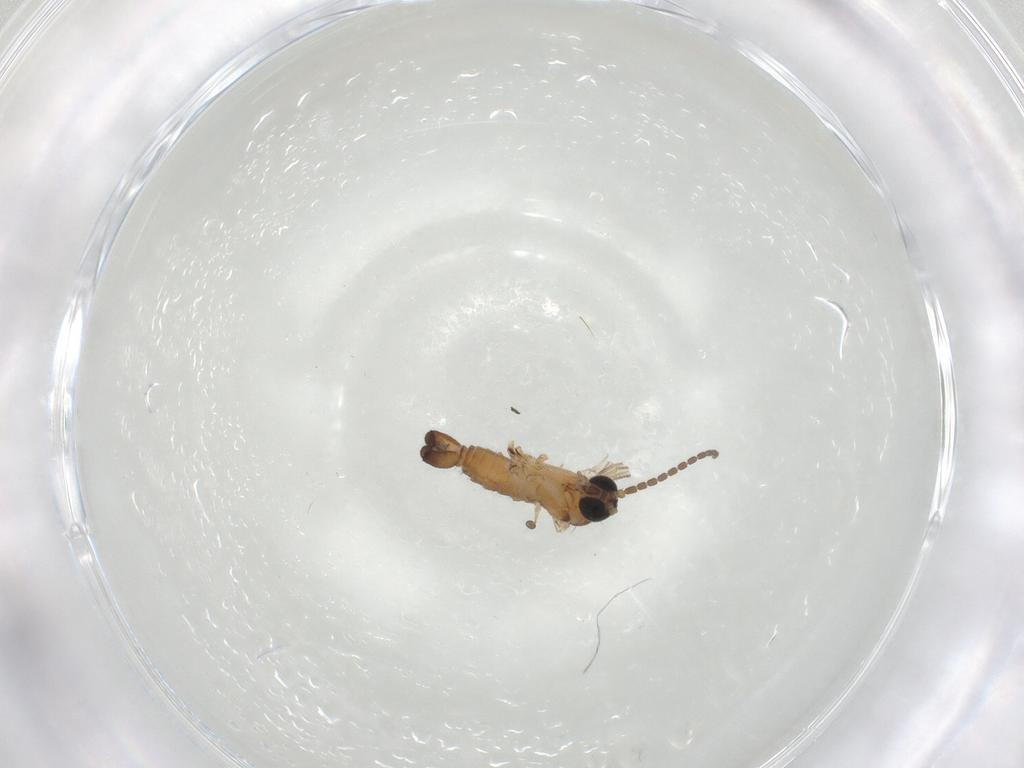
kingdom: Animalia
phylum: Arthropoda
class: Insecta
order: Diptera
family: Sciaridae
